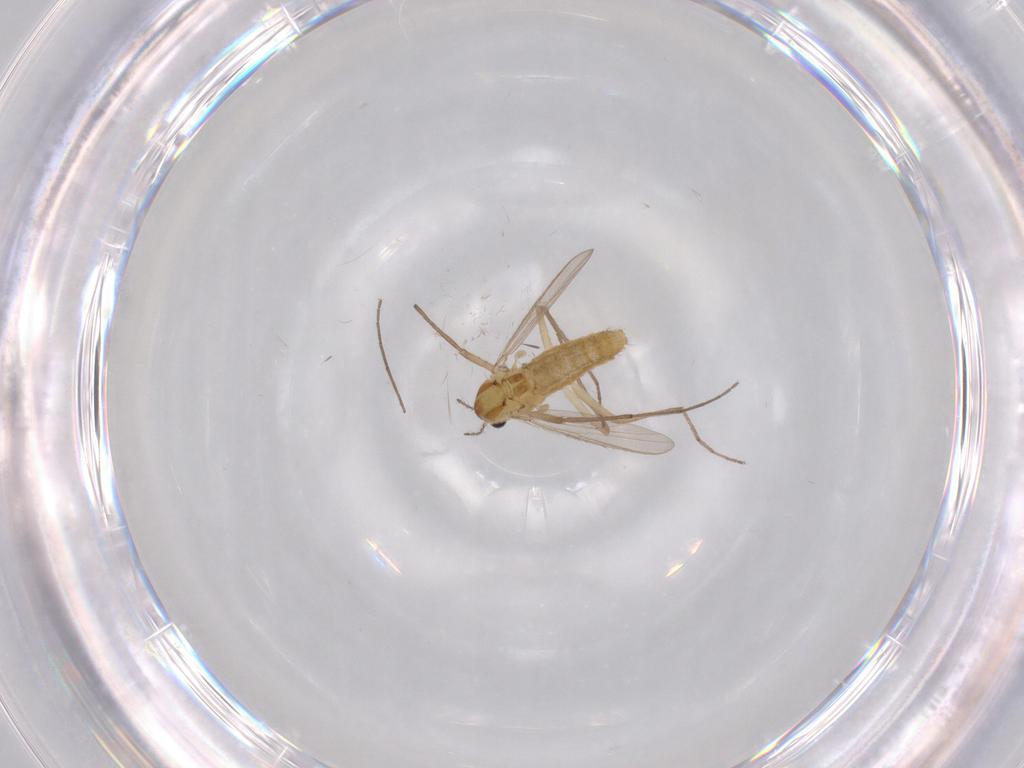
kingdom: Animalia
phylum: Arthropoda
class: Insecta
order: Diptera
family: Chironomidae
